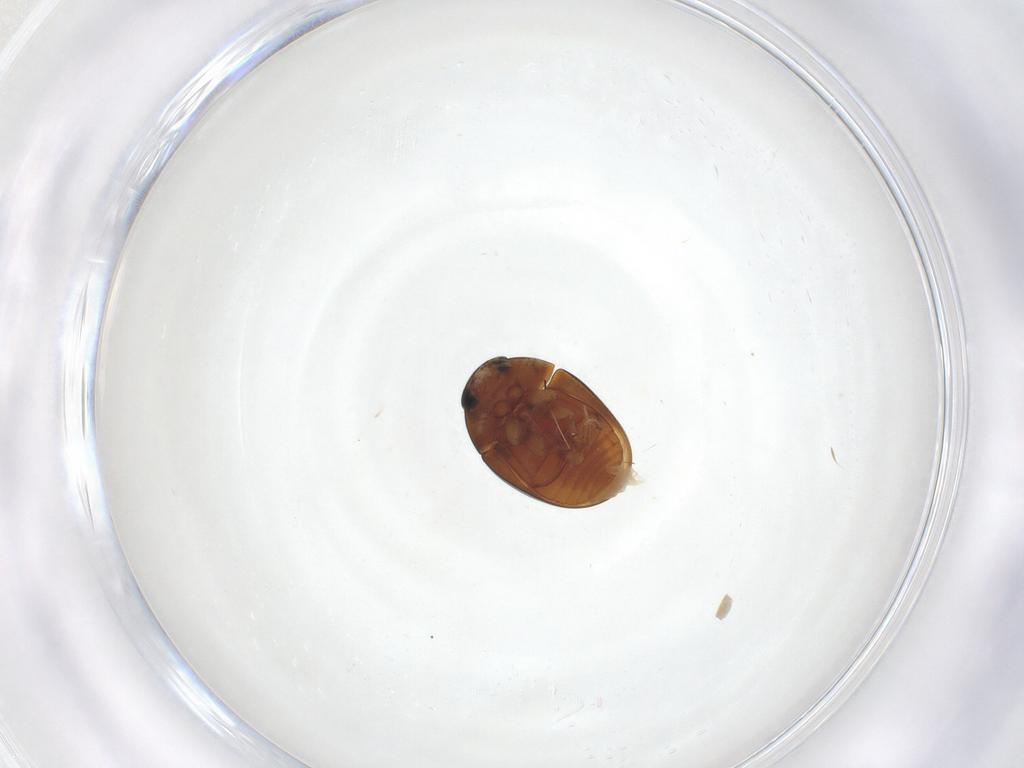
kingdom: Animalia
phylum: Arthropoda
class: Insecta
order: Coleoptera
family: Phalacridae
